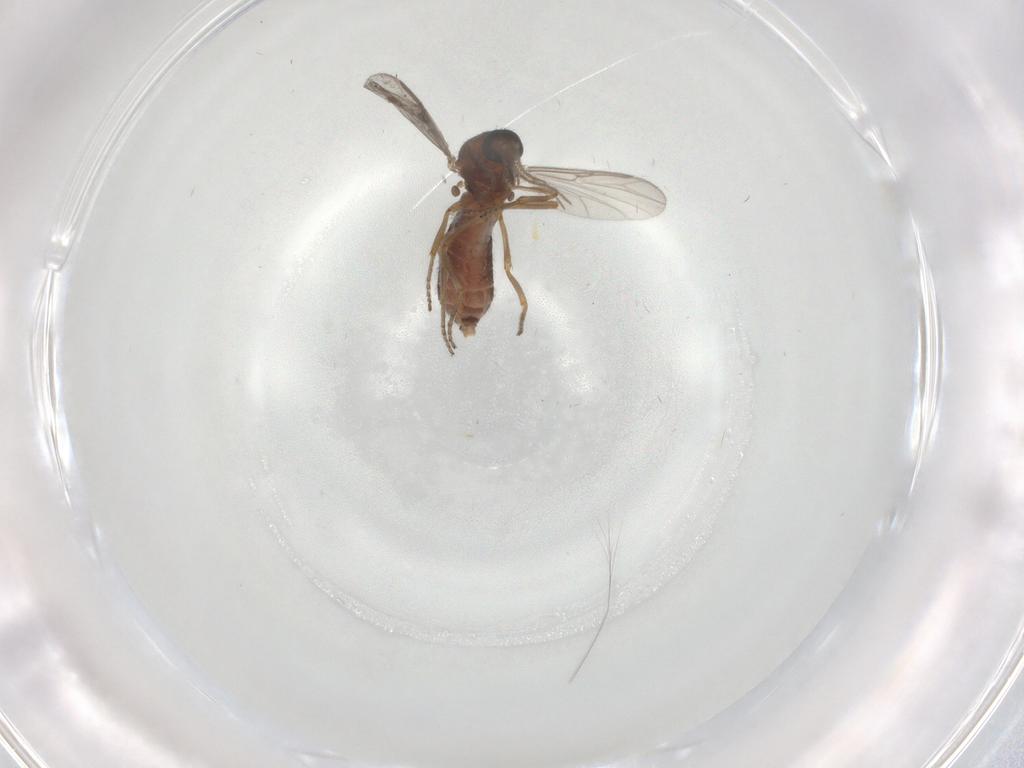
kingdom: Animalia
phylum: Arthropoda
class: Insecta
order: Diptera
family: Ceratopogonidae
